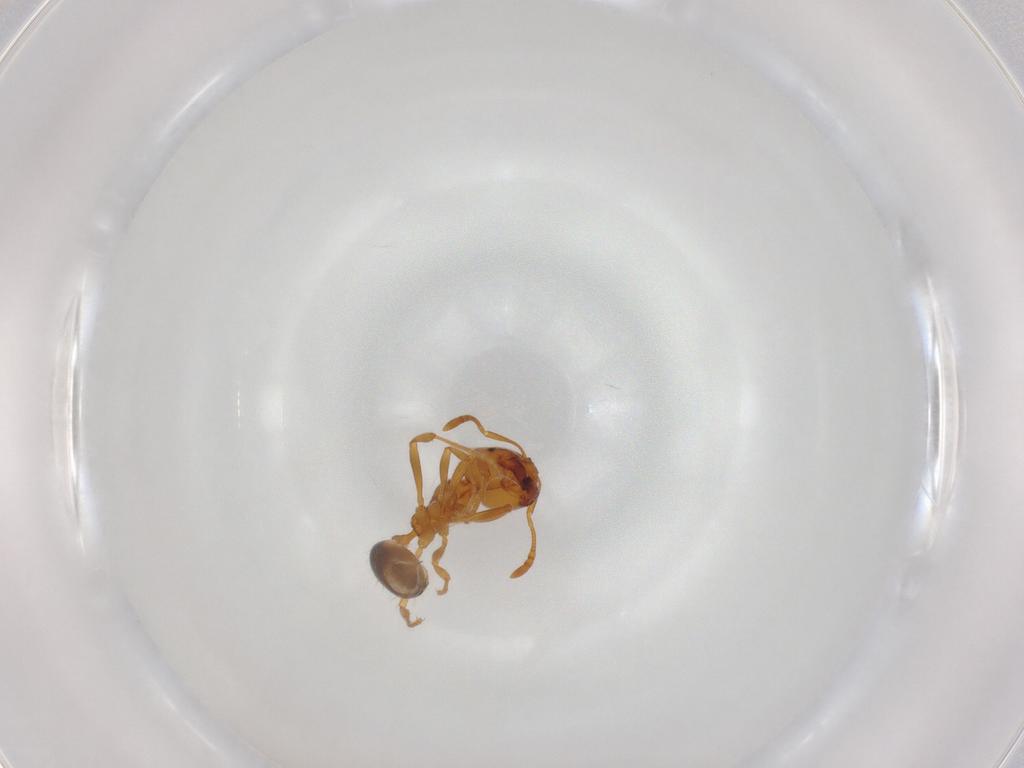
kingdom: Animalia
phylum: Arthropoda
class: Insecta
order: Hymenoptera
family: Formicidae
